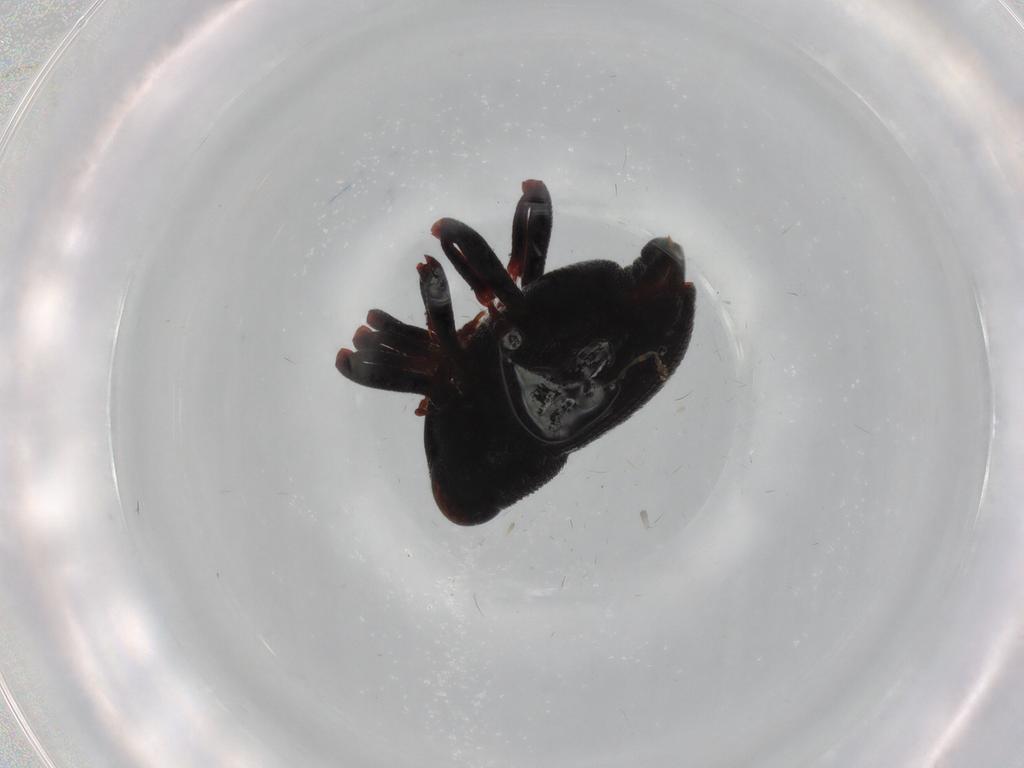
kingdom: Animalia
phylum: Arthropoda
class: Insecta
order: Coleoptera
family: Curculionidae
